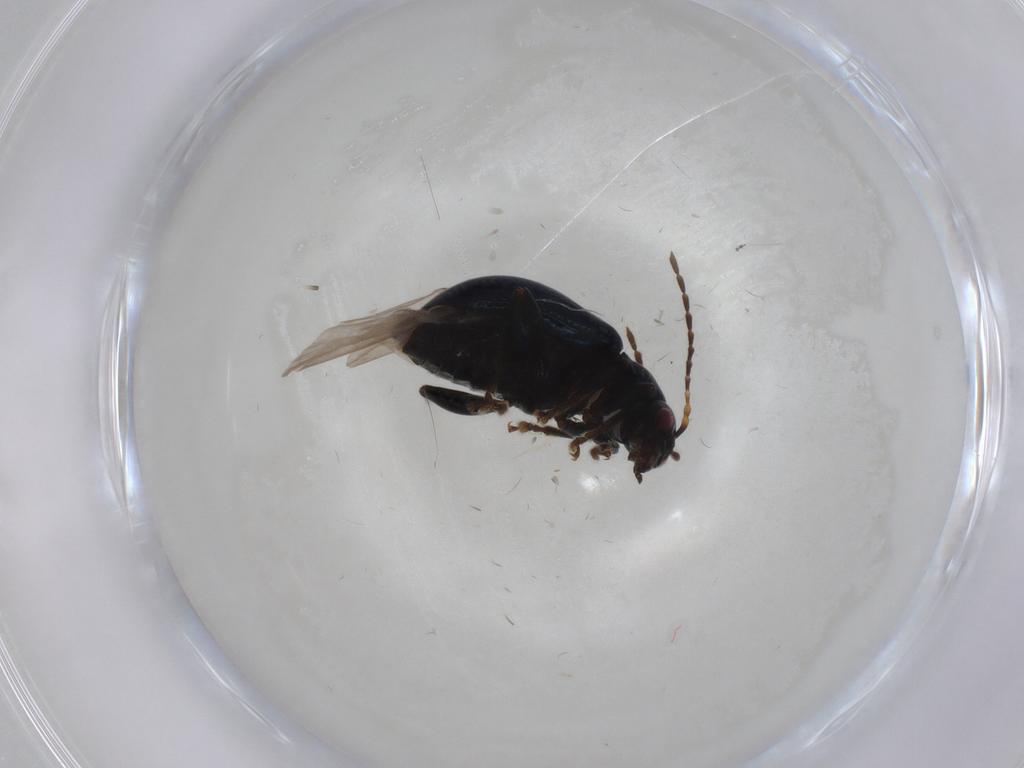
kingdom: Animalia
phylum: Arthropoda
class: Insecta
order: Coleoptera
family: Chrysomelidae
